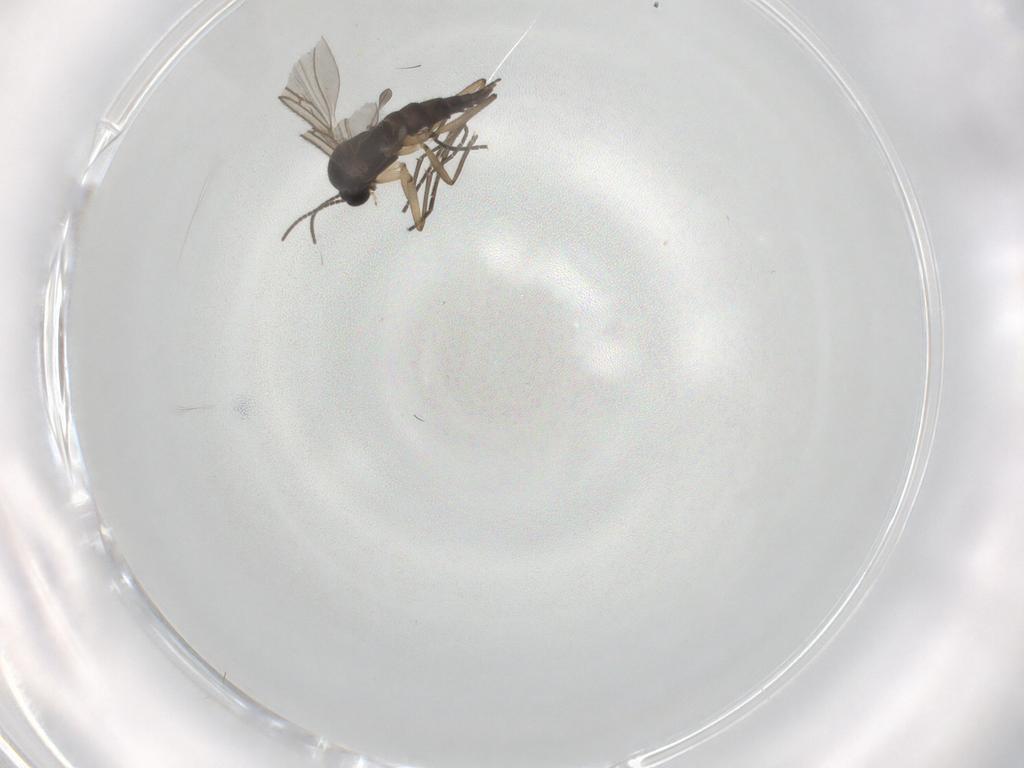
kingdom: Animalia
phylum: Arthropoda
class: Insecta
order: Diptera
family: Sciaridae
